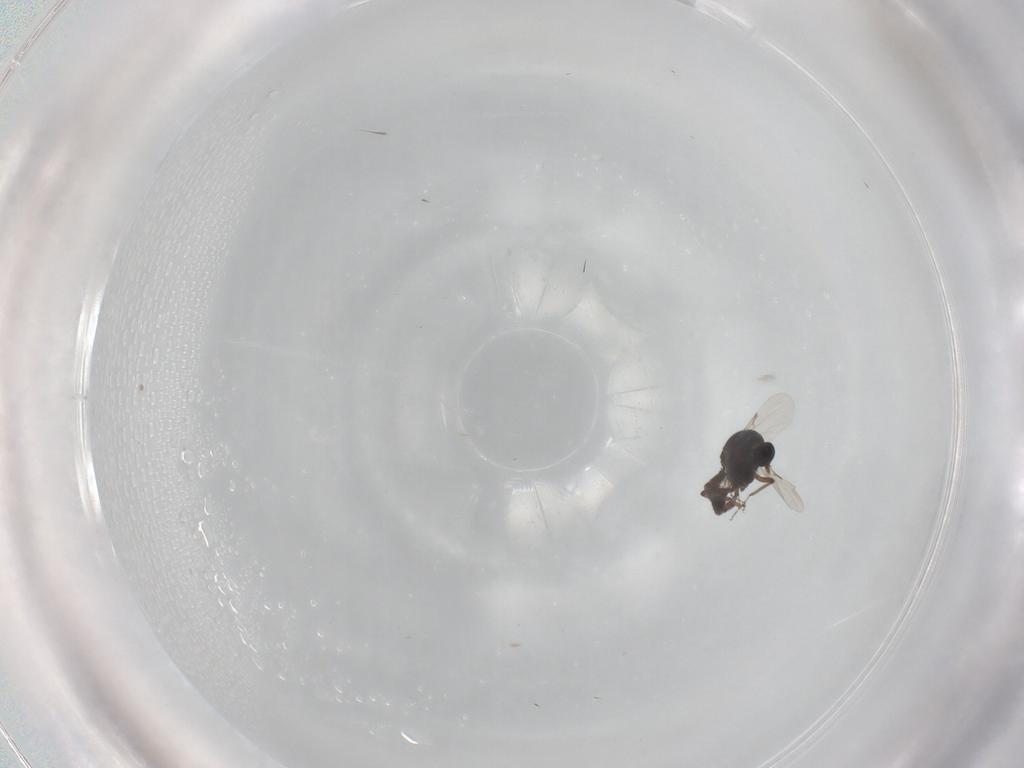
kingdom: Animalia
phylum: Arthropoda
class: Insecta
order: Diptera
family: Ceratopogonidae
